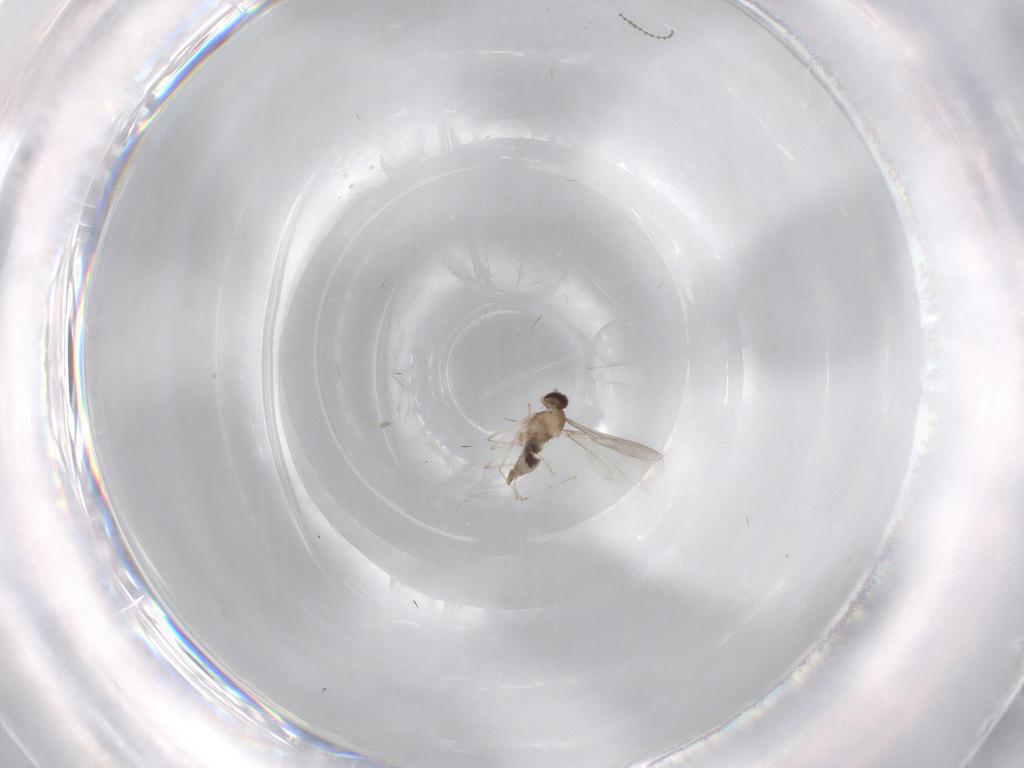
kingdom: Animalia
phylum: Arthropoda
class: Insecta
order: Diptera
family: Cecidomyiidae
